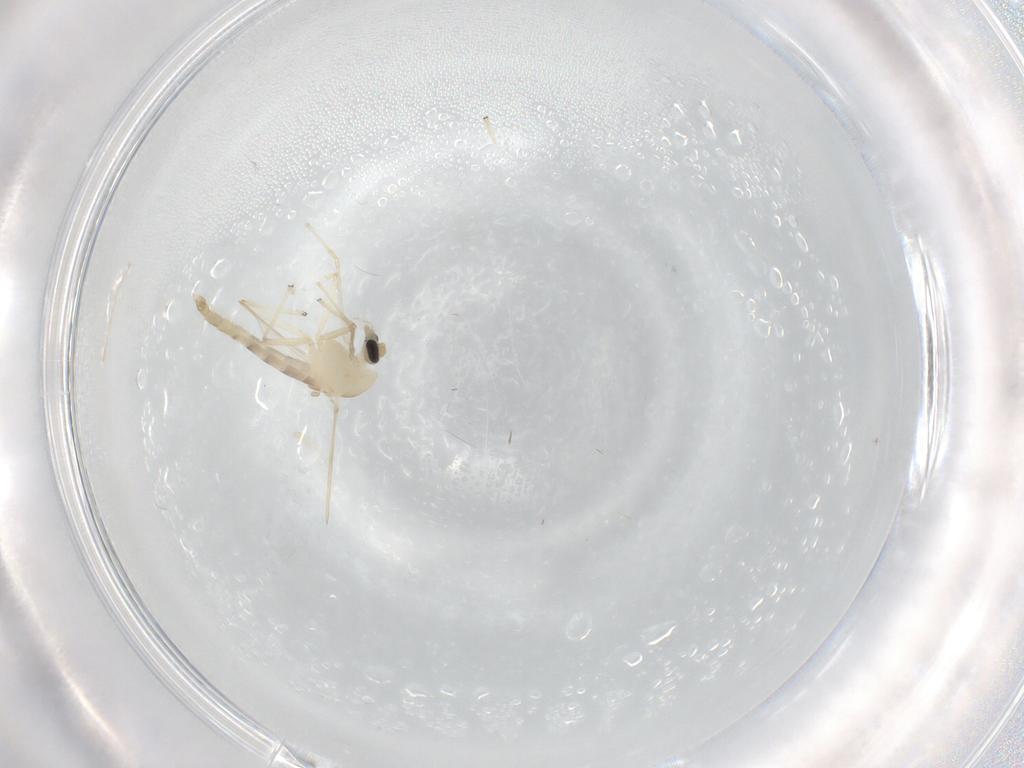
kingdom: Animalia
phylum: Arthropoda
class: Insecta
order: Diptera
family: Chironomidae
